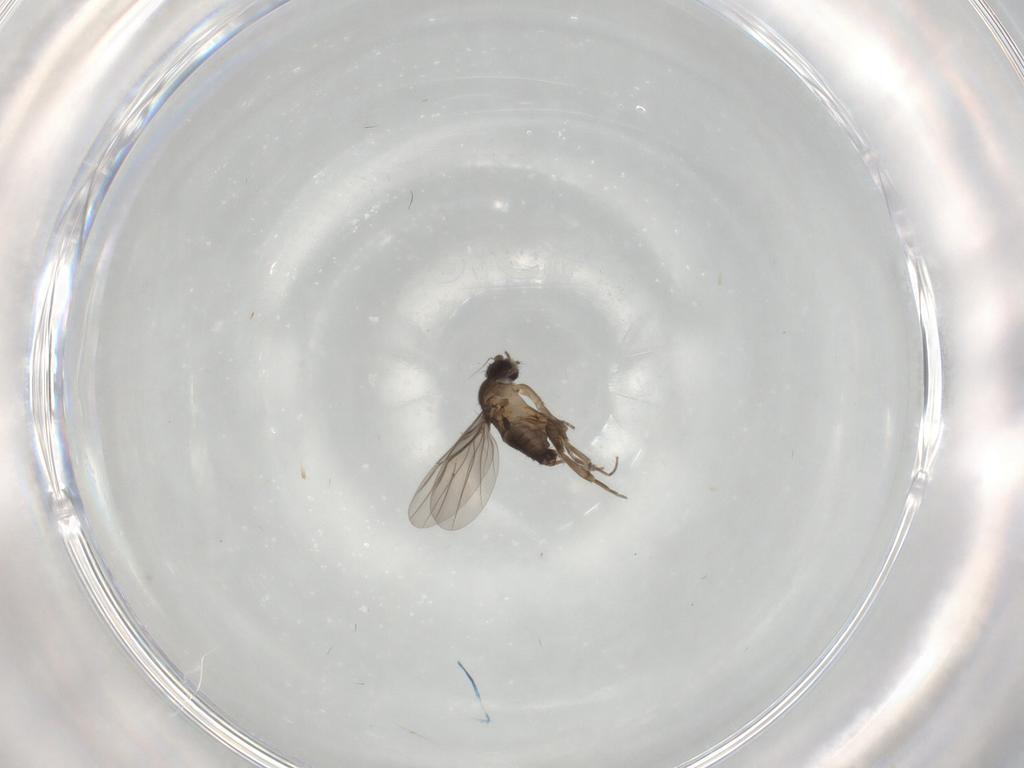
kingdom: Animalia
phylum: Arthropoda
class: Insecta
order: Diptera
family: Phoridae
